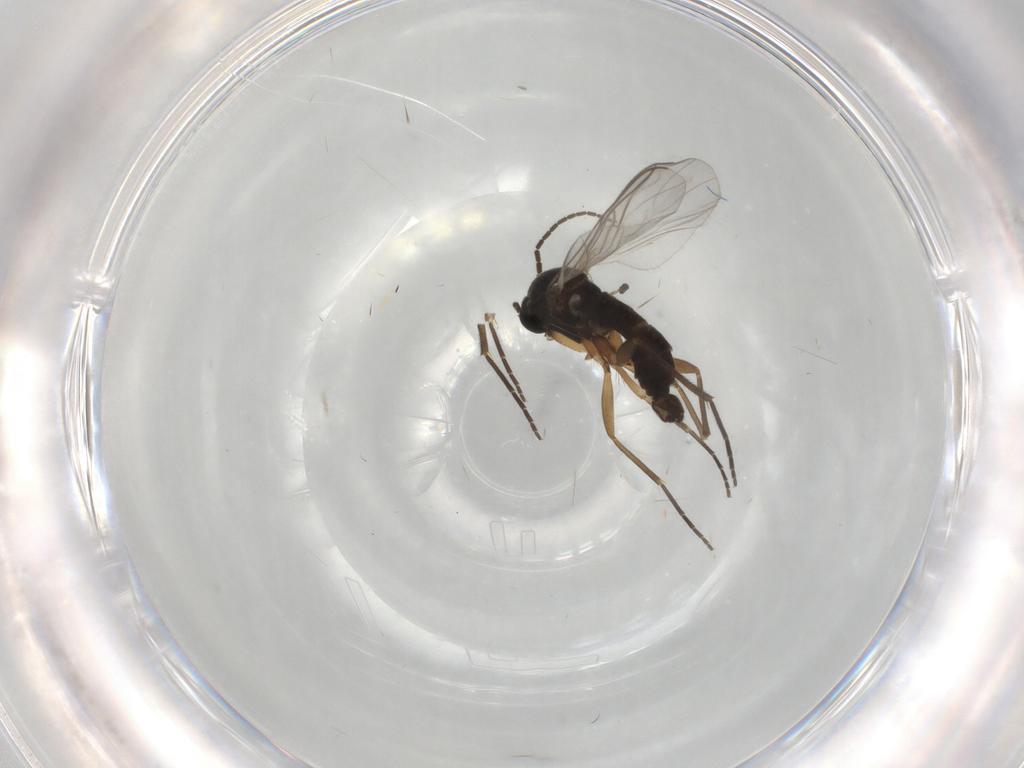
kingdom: Animalia
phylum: Arthropoda
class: Insecta
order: Diptera
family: Sciaridae
